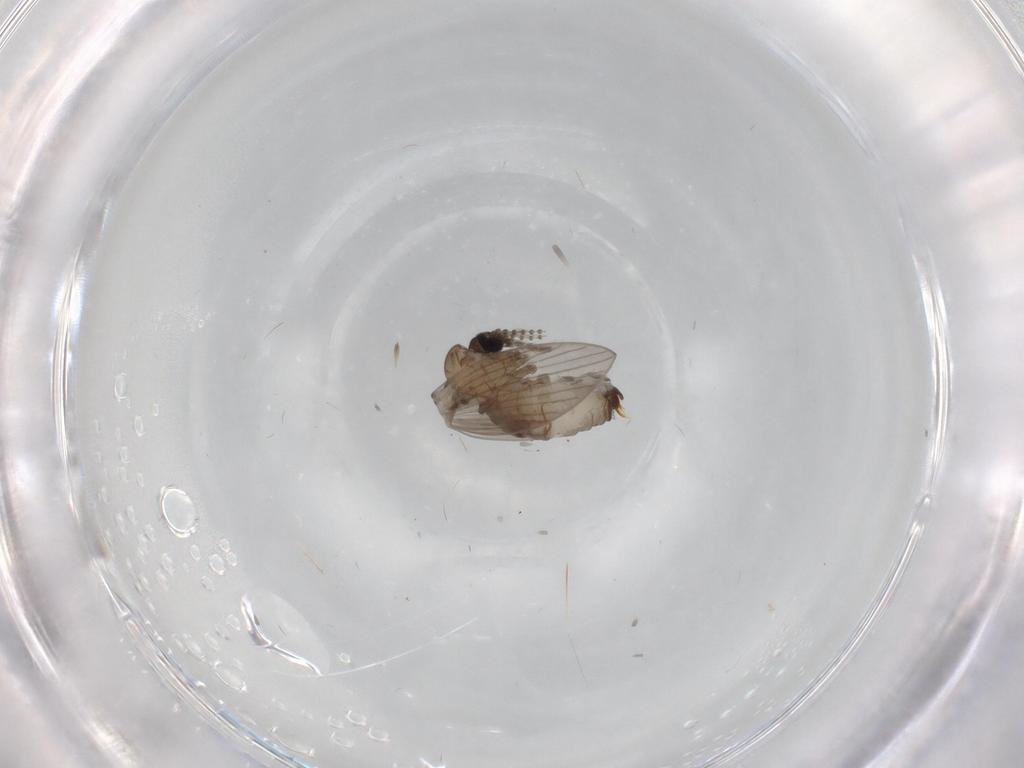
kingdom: Animalia
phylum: Arthropoda
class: Insecta
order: Diptera
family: Psychodidae
